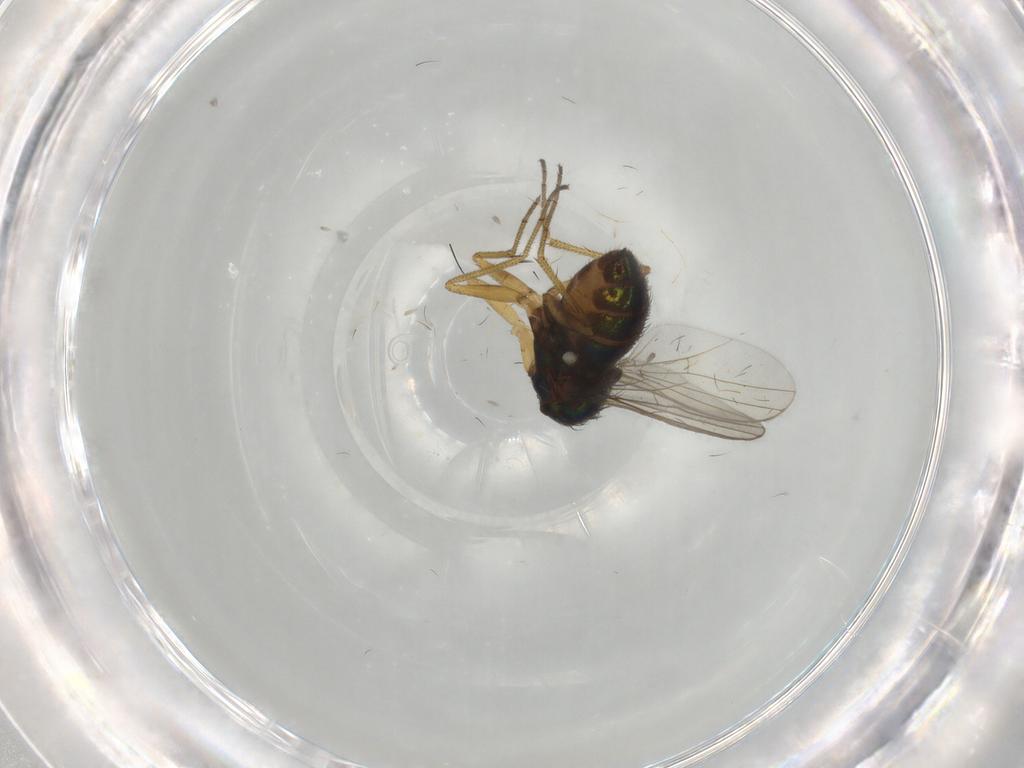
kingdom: Animalia
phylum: Arthropoda
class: Insecta
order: Diptera
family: Dolichopodidae
